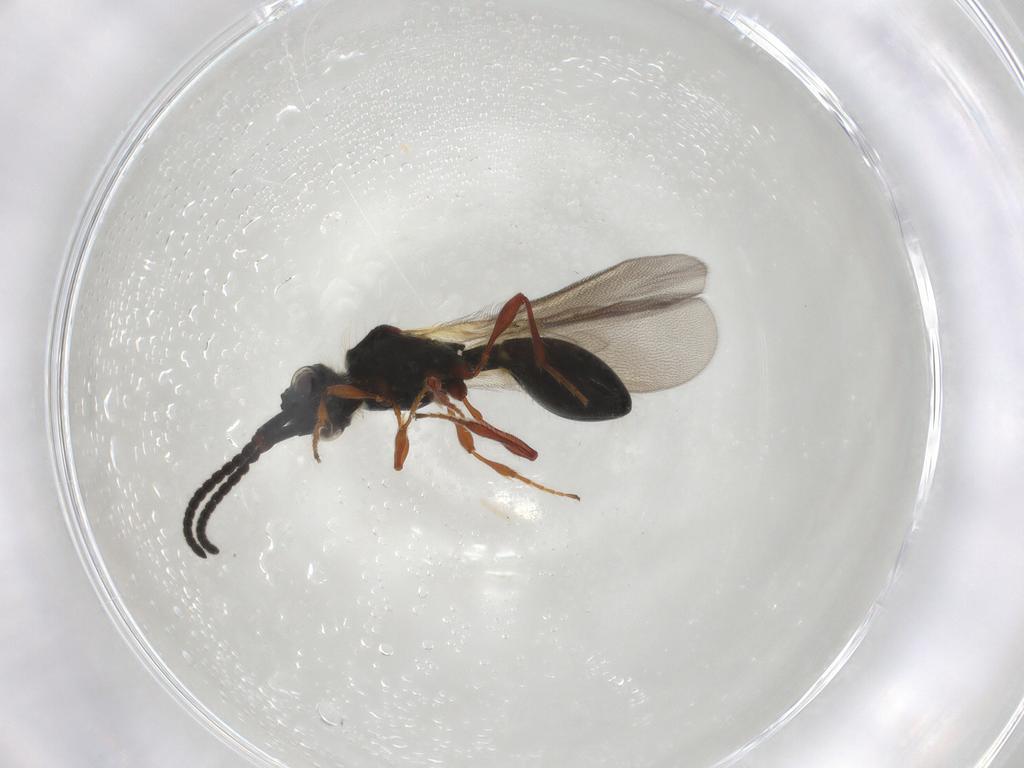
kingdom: Animalia
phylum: Arthropoda
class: Insecta
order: Hymenoptera
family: Diapriidae
